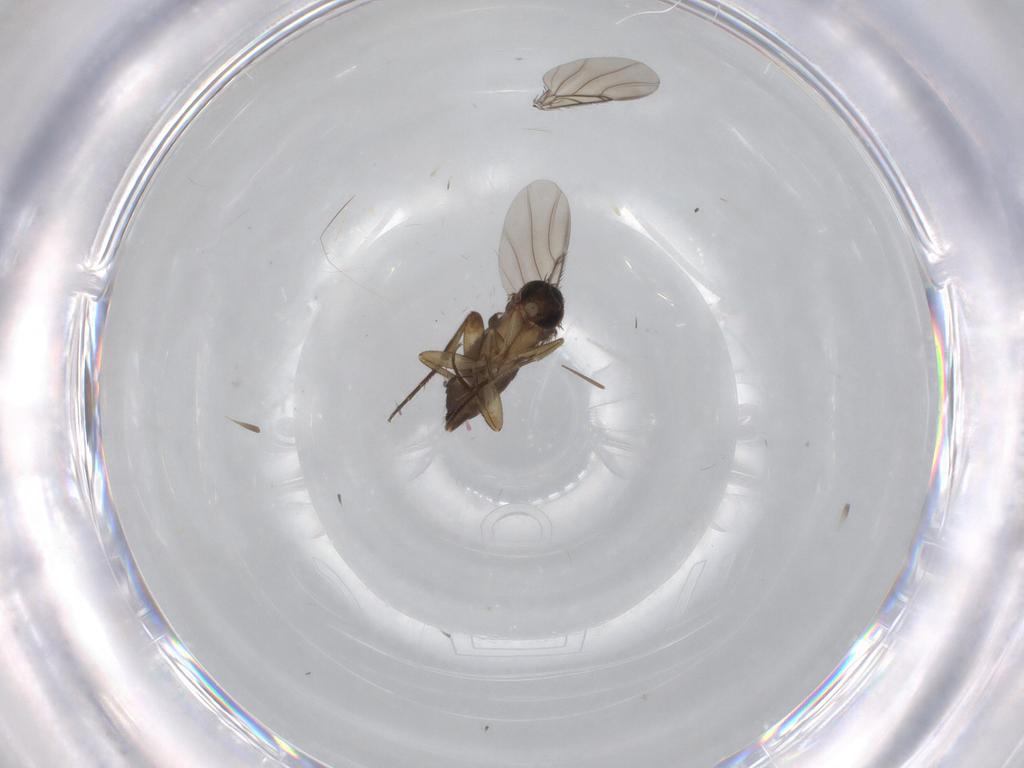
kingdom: Animalia
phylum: Arthropoda
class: Insecta
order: Diptera
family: Phoridae
